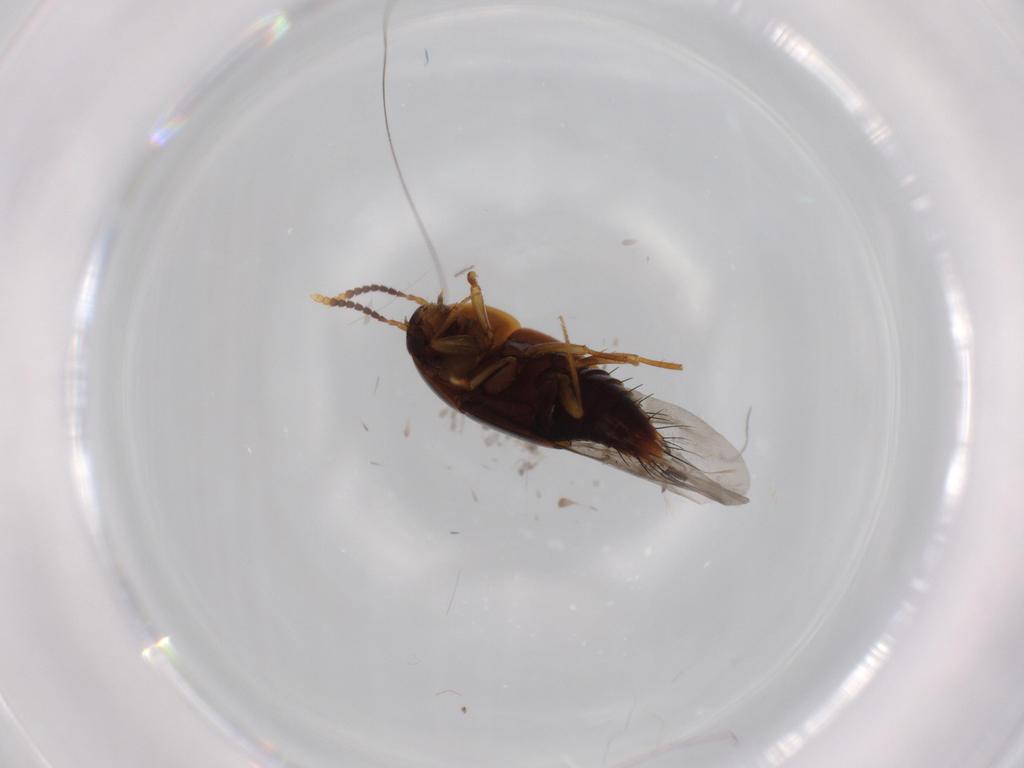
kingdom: Animalia
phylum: Arthropoda
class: Insecta
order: Coleoptera
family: Staphylinidae
